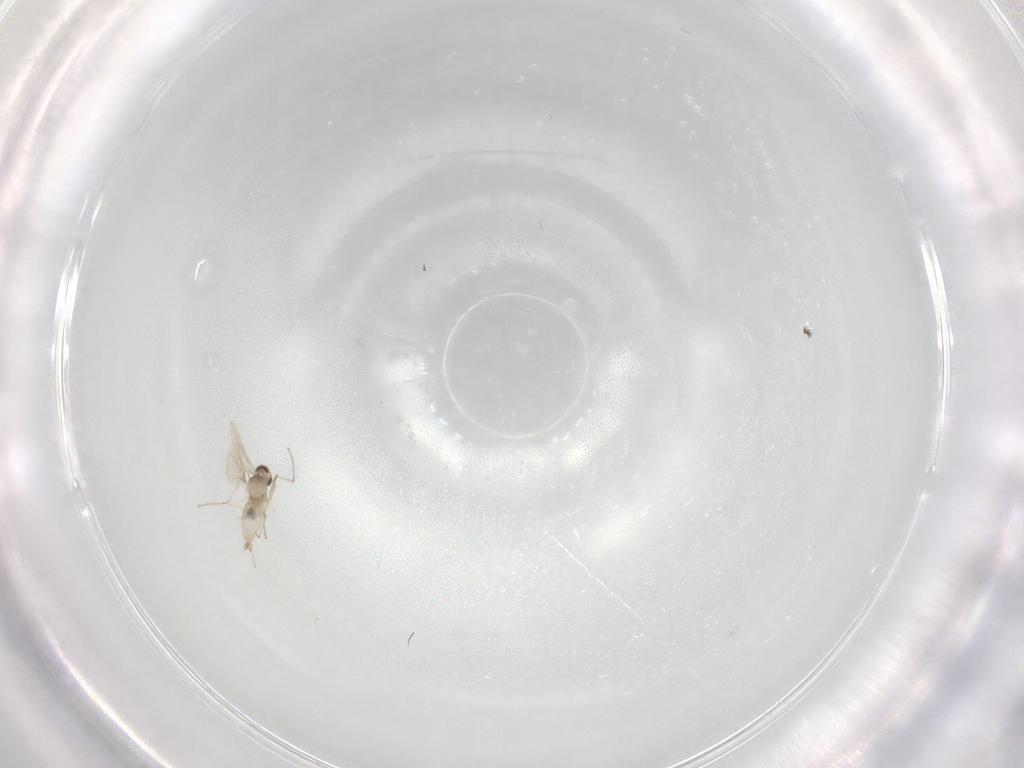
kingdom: Animalia
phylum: Arthropoda
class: Insecta
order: Diptera
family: Cecidomyiidae
